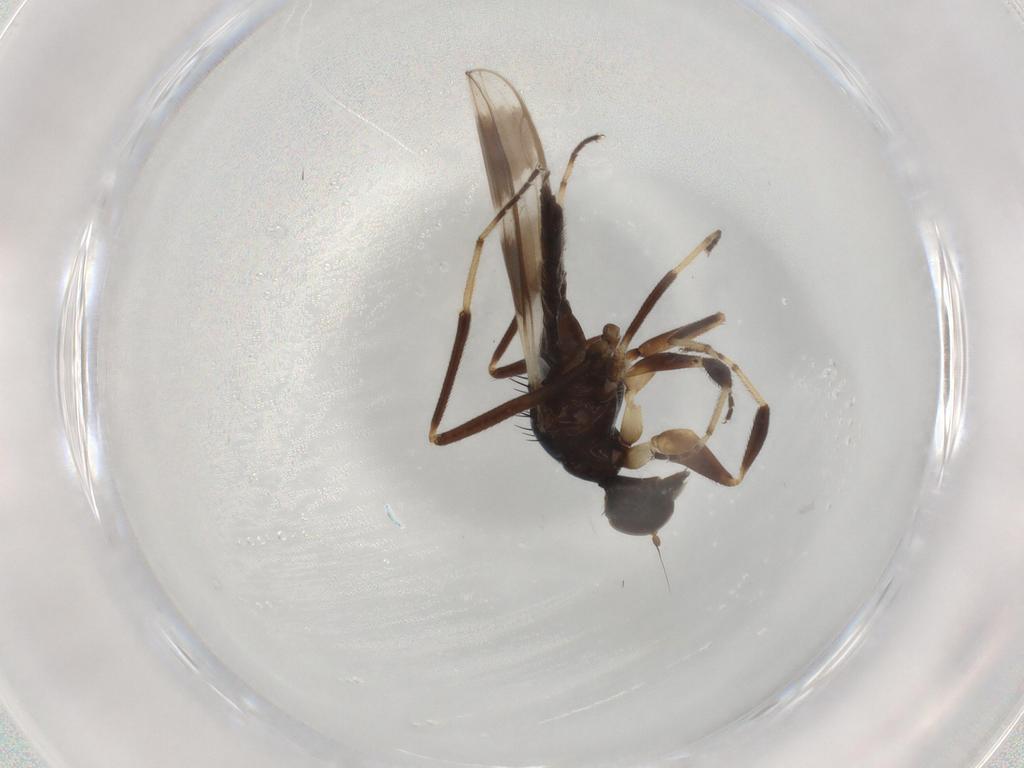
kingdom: Animalia
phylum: Arthropoda
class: Insecta
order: Diptera
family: Hybotidae
